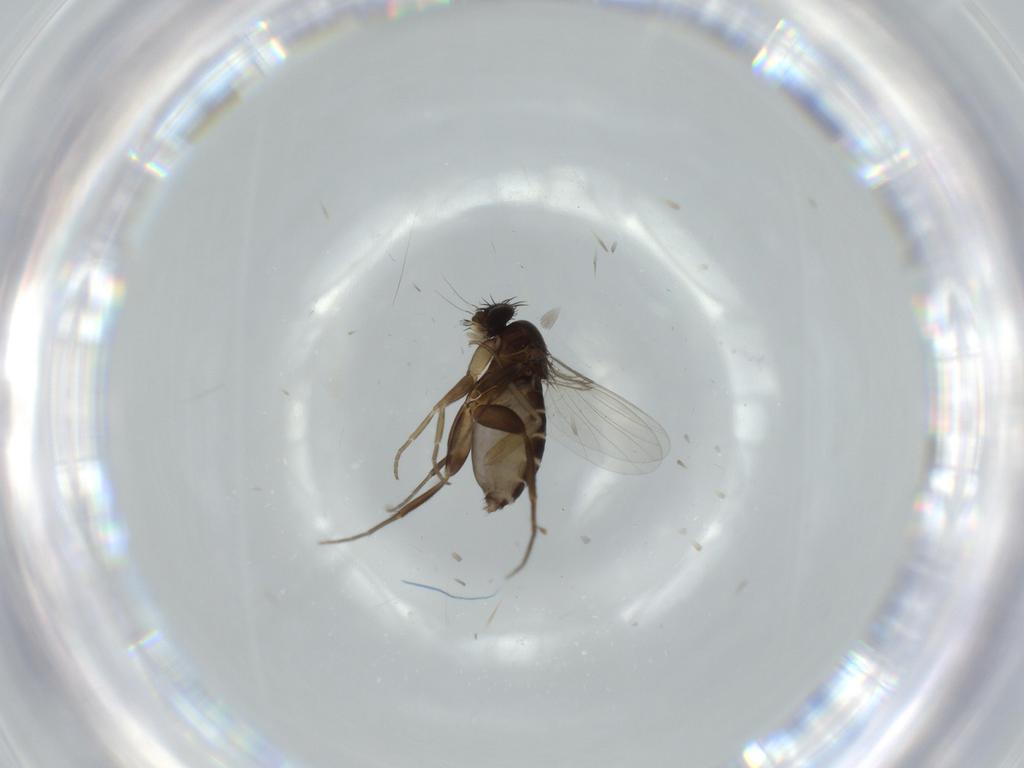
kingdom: Animalia
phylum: Arthropoda
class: Insecta
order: Diptera
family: Phoridae
